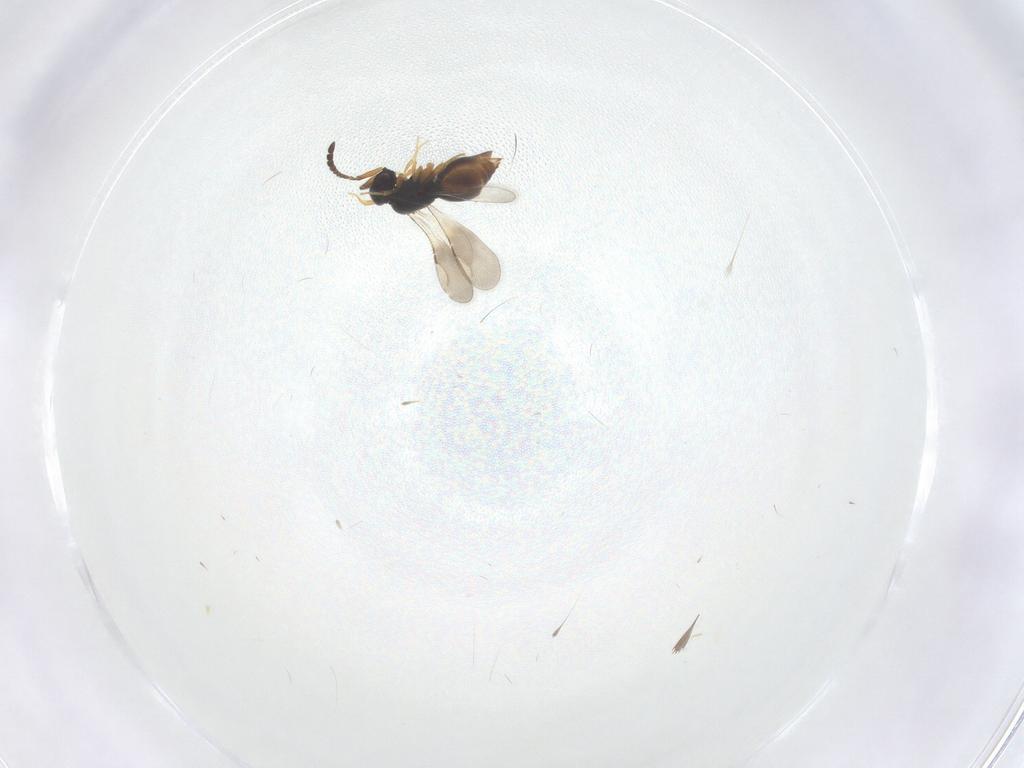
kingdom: Animalia
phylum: Arthropoda
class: Insecta
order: Hymenoptera
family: Ceraphronidae
